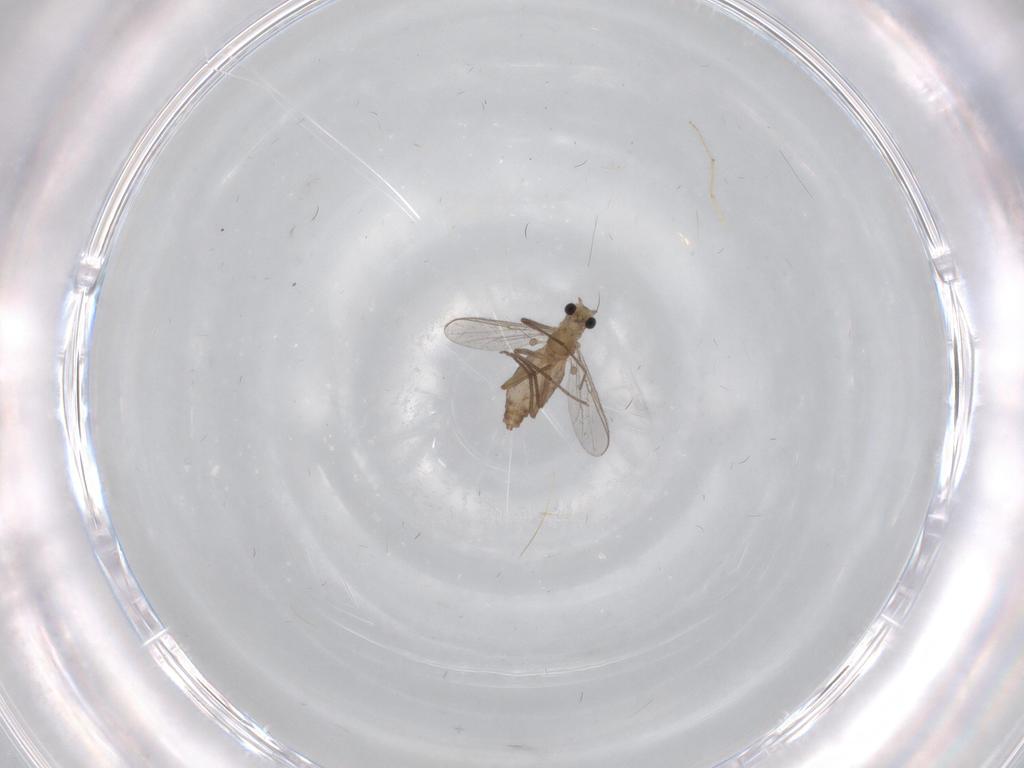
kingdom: Animalia
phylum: Arthropoda
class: Insecta
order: Diptera
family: Chironomidae
